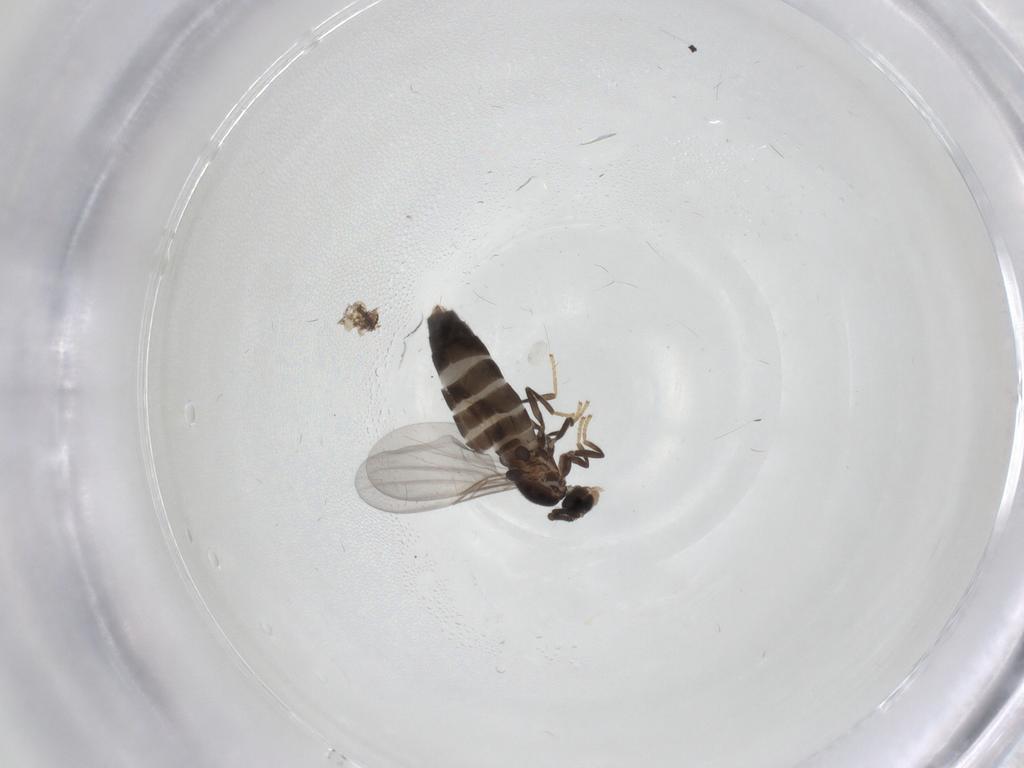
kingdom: Animalia
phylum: Arthropoda
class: Insecta
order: Diptera
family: Scatopsidae
